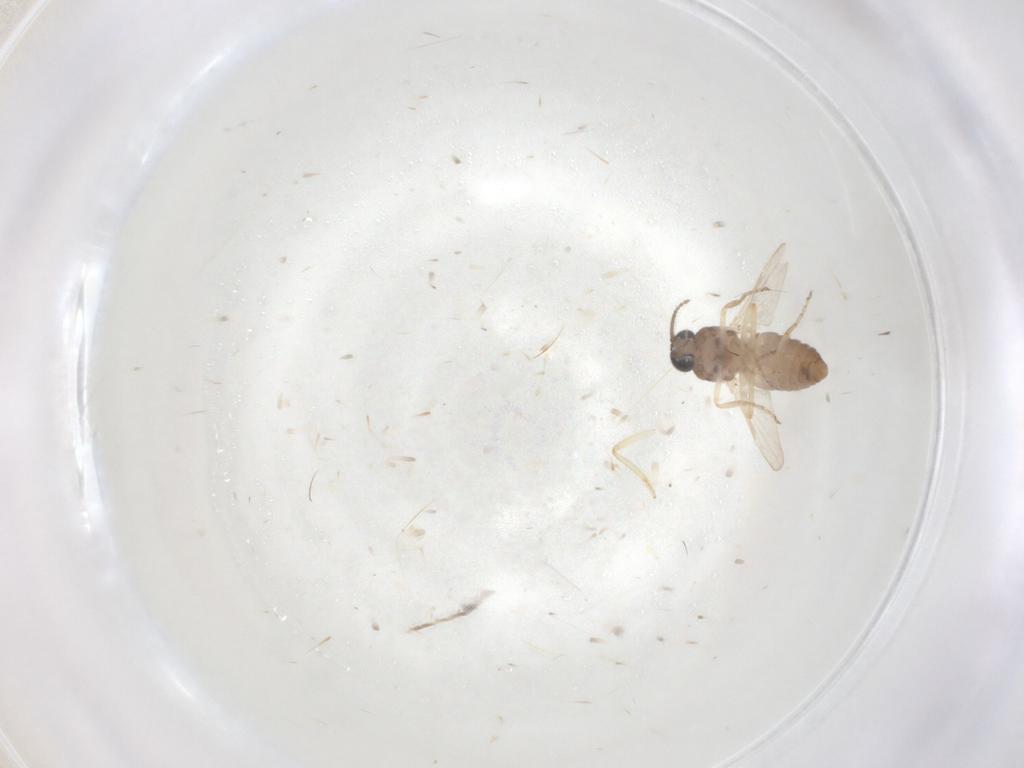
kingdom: Animalia
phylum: Arthropoda
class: Insecta
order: Diptera
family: Ceratopogonidae
